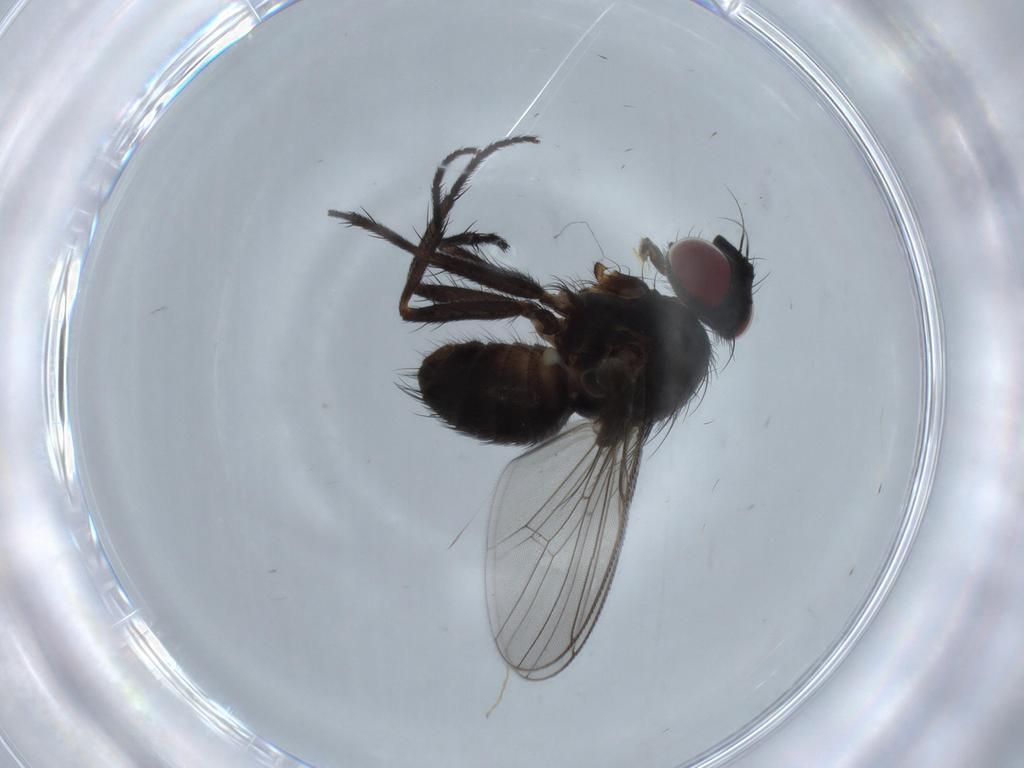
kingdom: Animalia
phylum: Arthropoda
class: Insecta
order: Diptera
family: Muscidae
